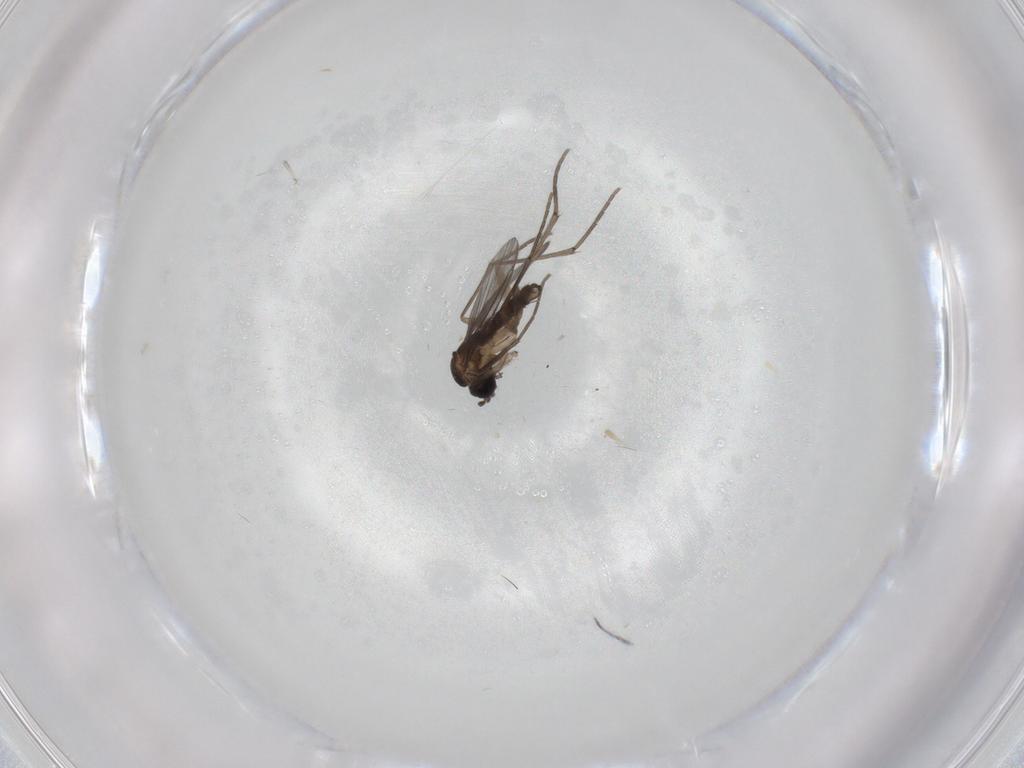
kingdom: Animalia
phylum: Arthropoda
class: Insecta
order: Diptera
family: Sciaridae
